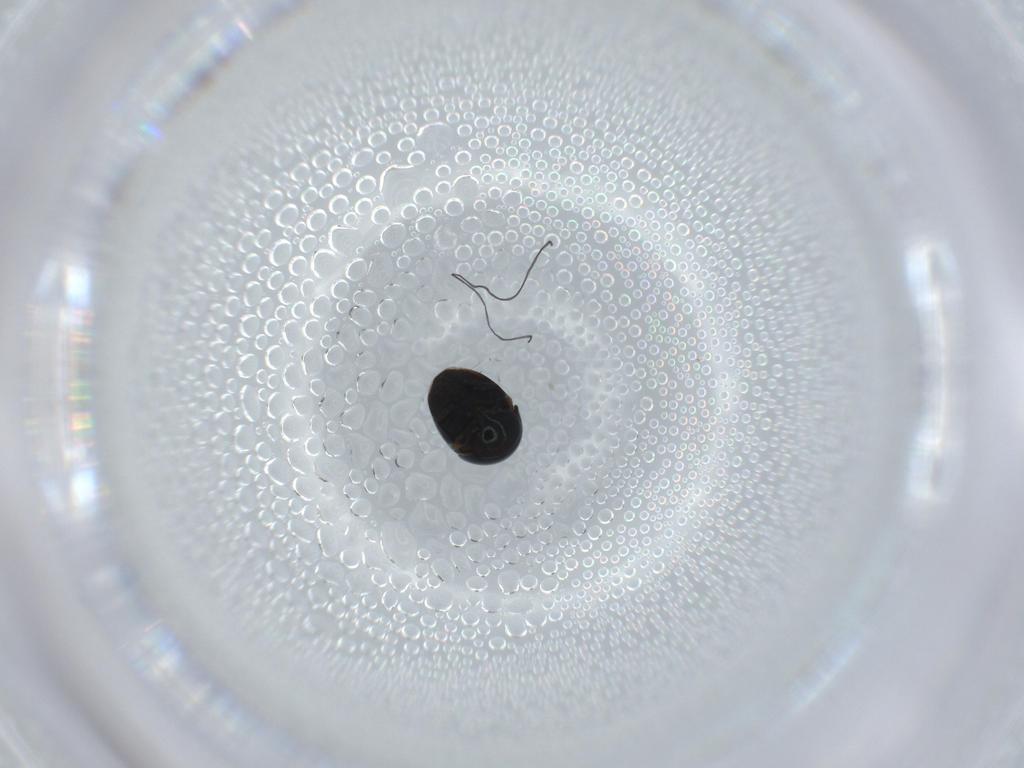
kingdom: Animalia
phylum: Arthropoda
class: Insecta
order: Coleoptera
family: Cybocephalidae
